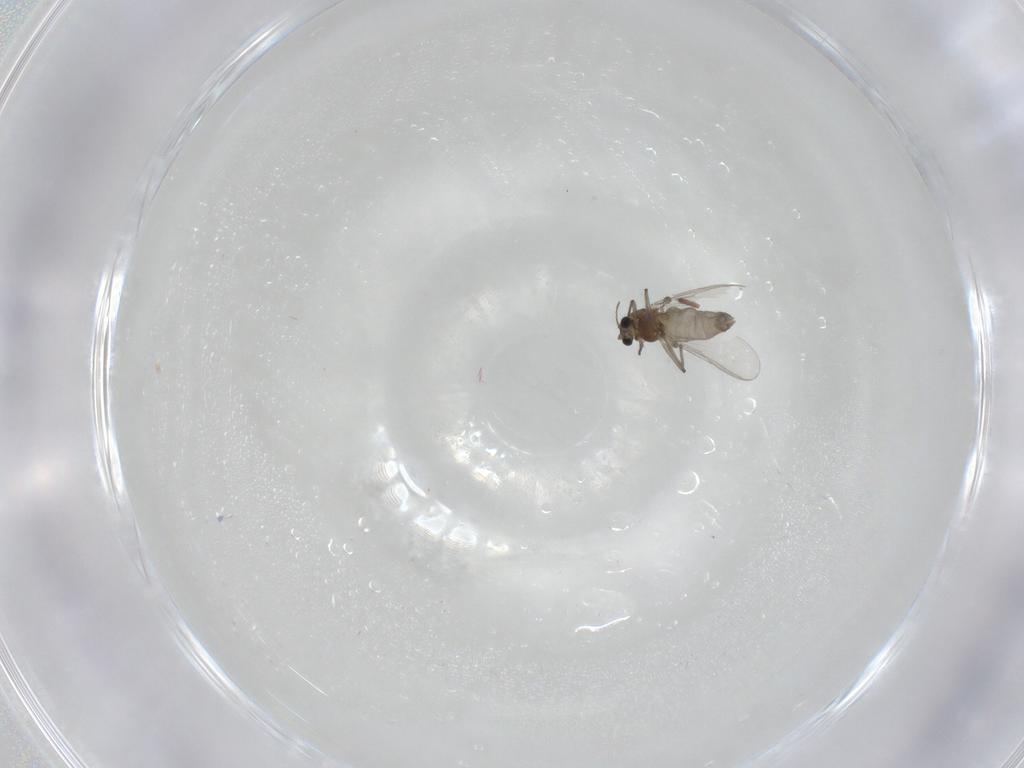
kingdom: Animalia
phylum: Arthropoda
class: Insecta
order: Diptera
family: Chironomidae
